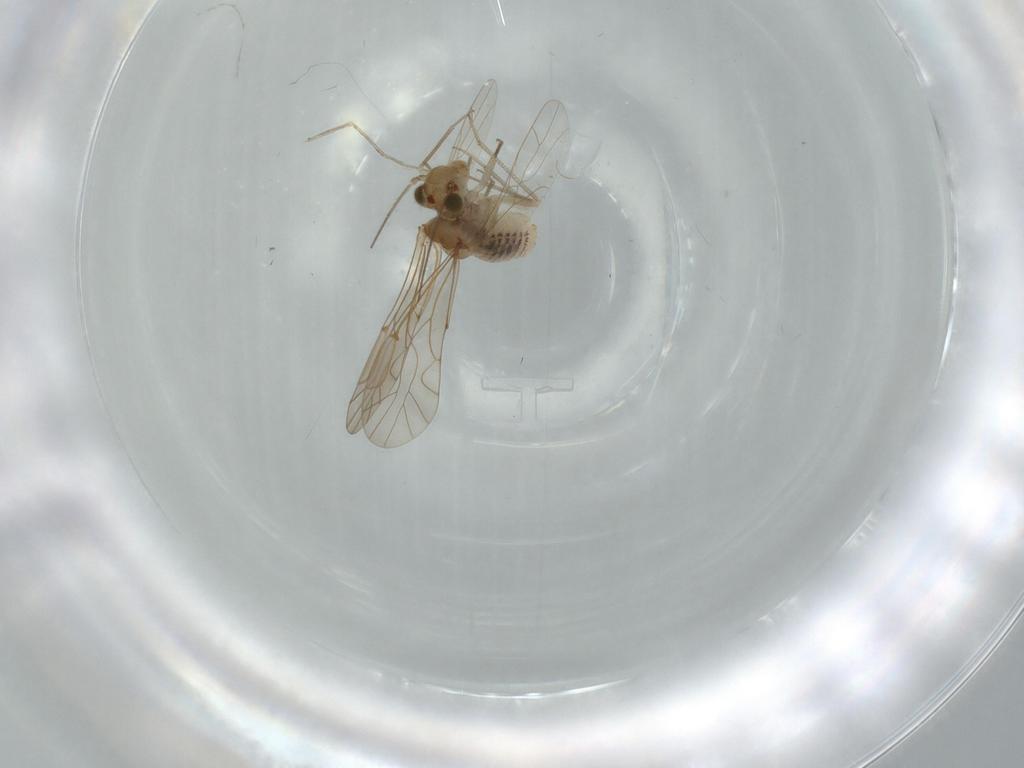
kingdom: Animalia
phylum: Arthropoda
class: Insecta
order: Psocodea
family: Lachesillidae
